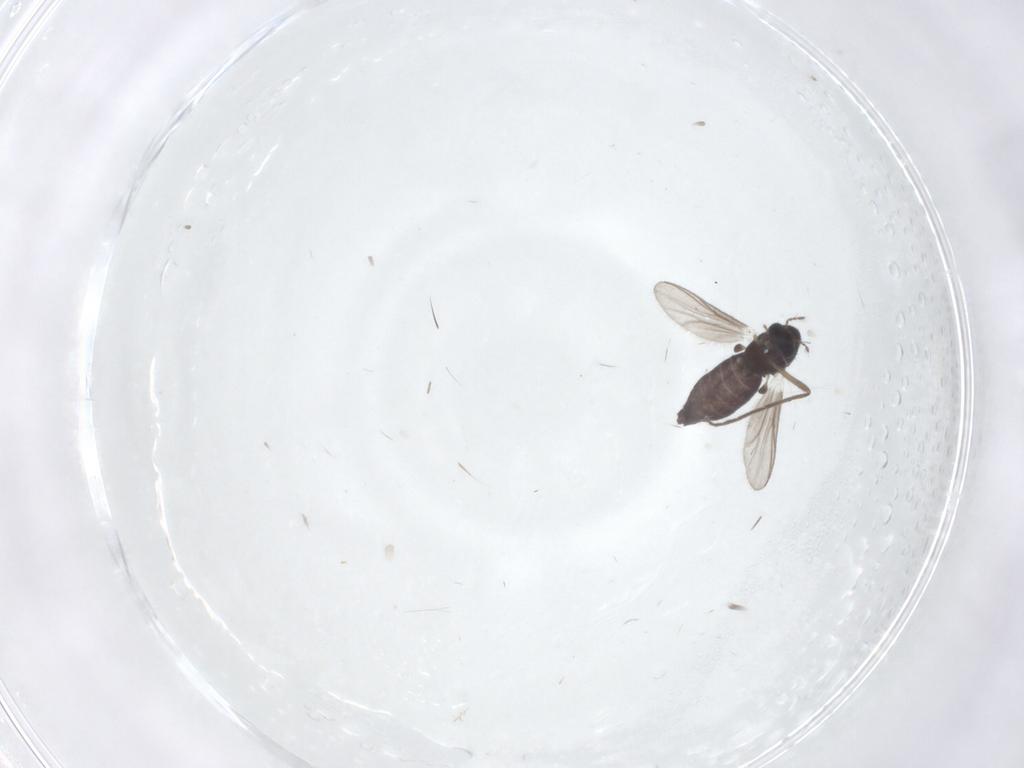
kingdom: Animalia
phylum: Arthropoda
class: Insecta
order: Diptera
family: Chironomidae
